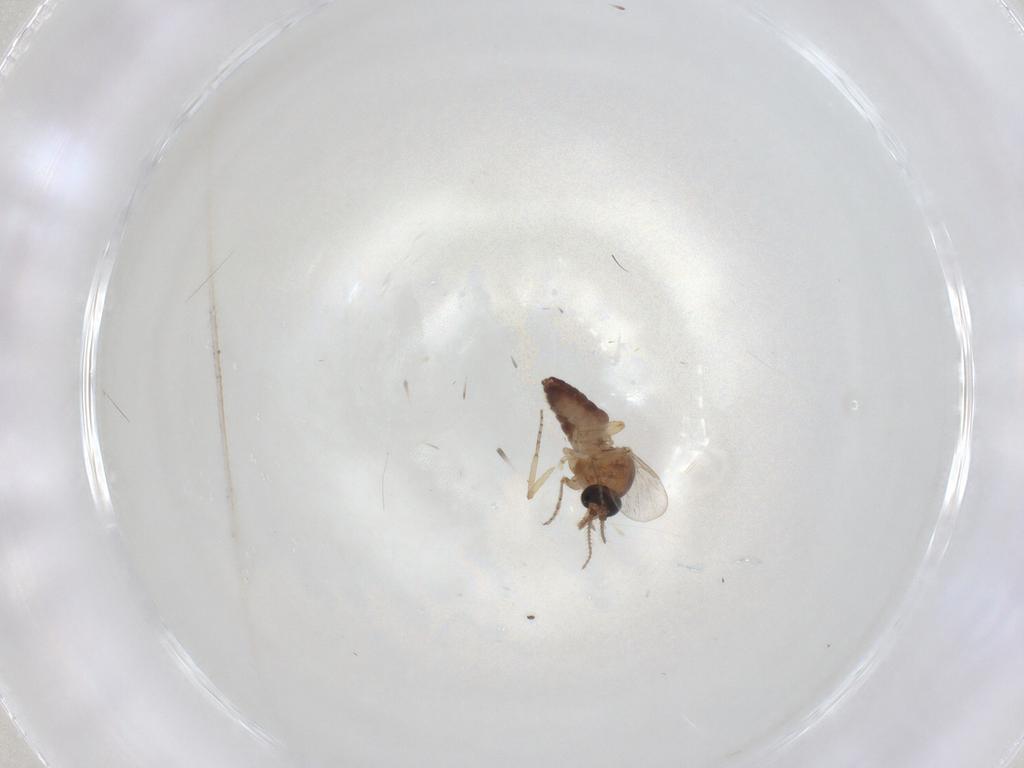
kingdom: Animalia
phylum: Arthropoda
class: Insecta
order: Diptera
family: Ceratopogonidae
